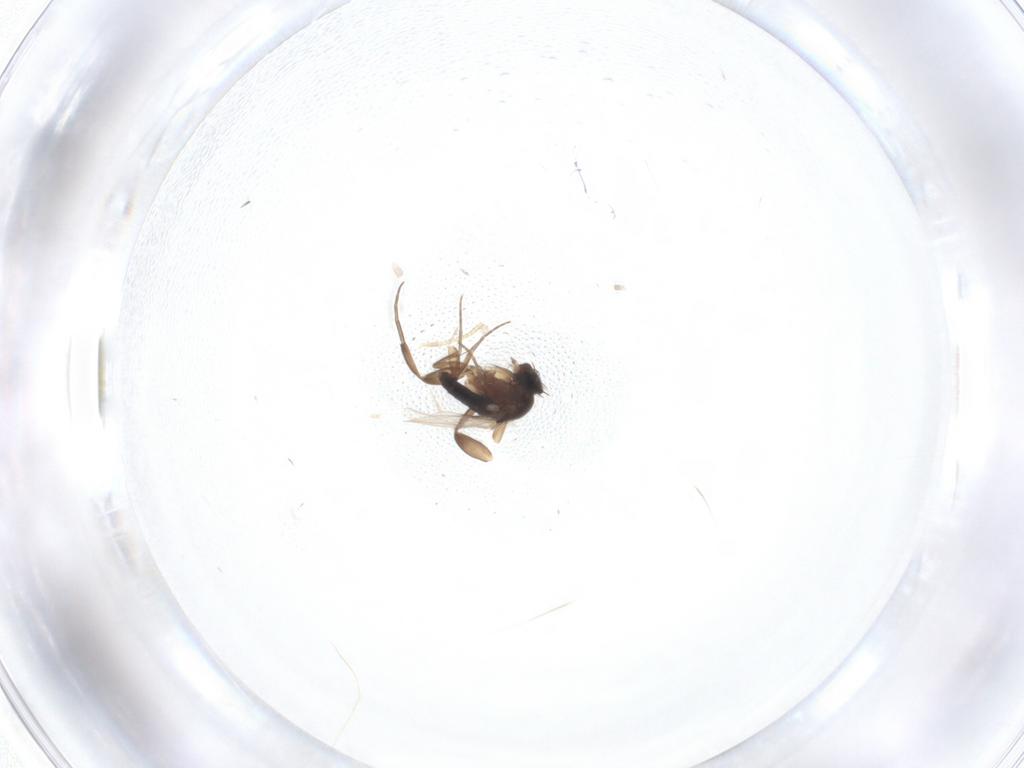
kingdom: Animalia
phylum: Arthropoda
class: Insecta
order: Diptera
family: Phoridae
